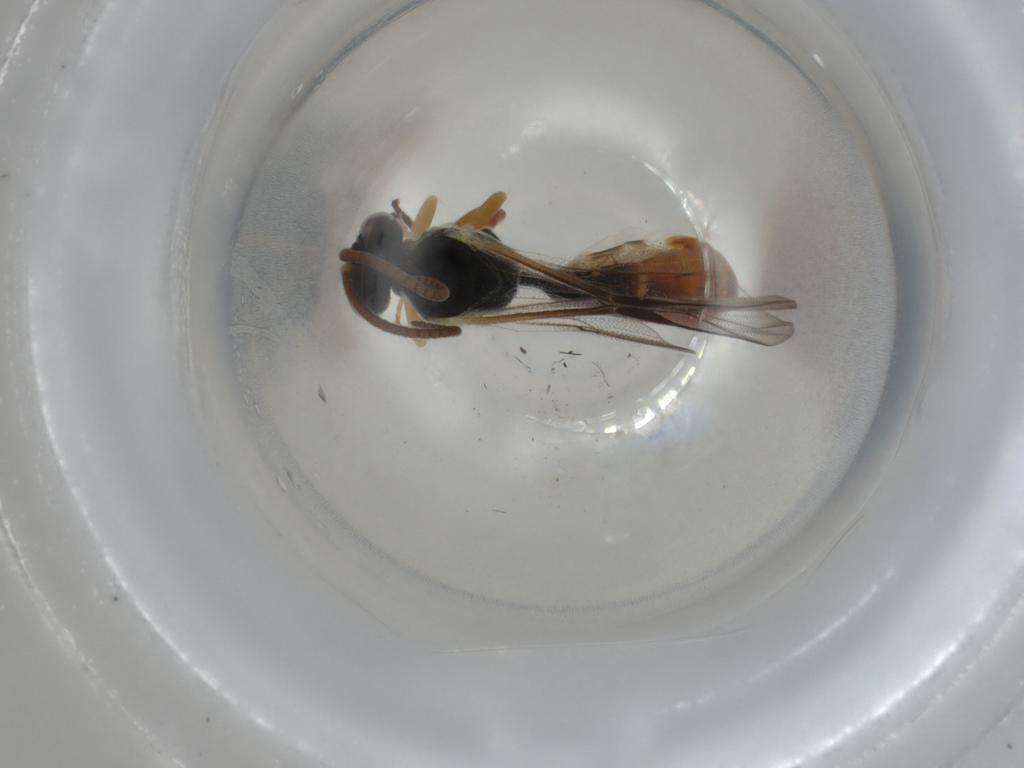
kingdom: Animalia
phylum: Arthropoda
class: Insecta
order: Hymenoptera
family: Ichneumonidae
